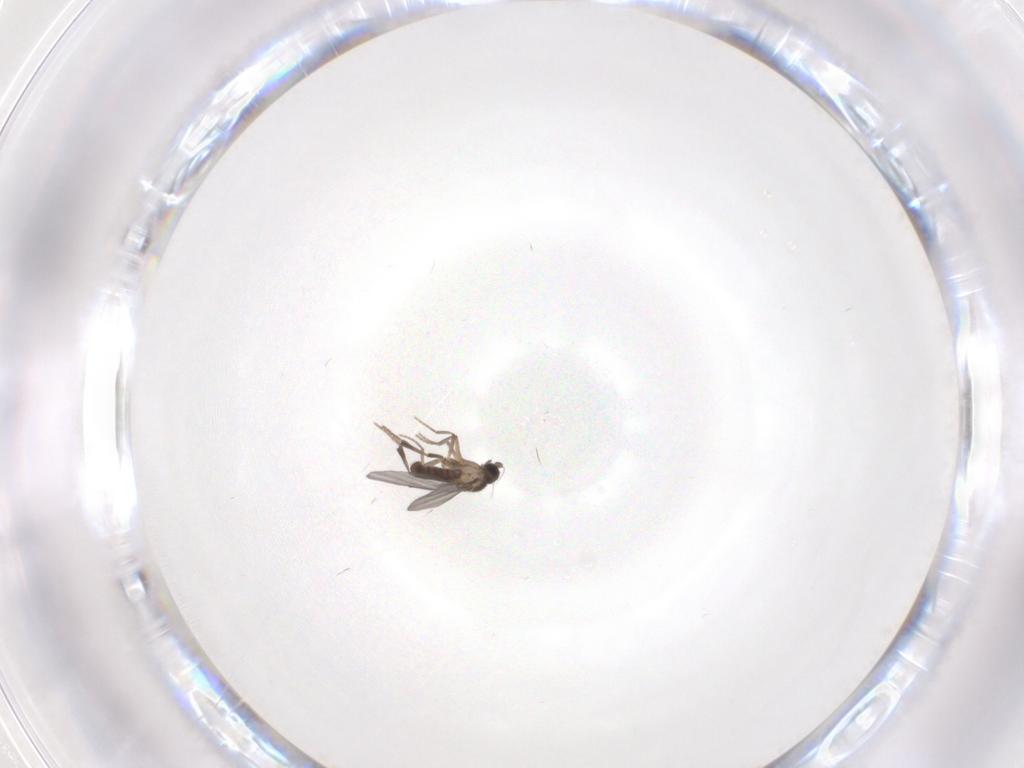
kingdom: Animalia
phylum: Arthropoda
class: Insecta
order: Diptera
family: Phoridae
